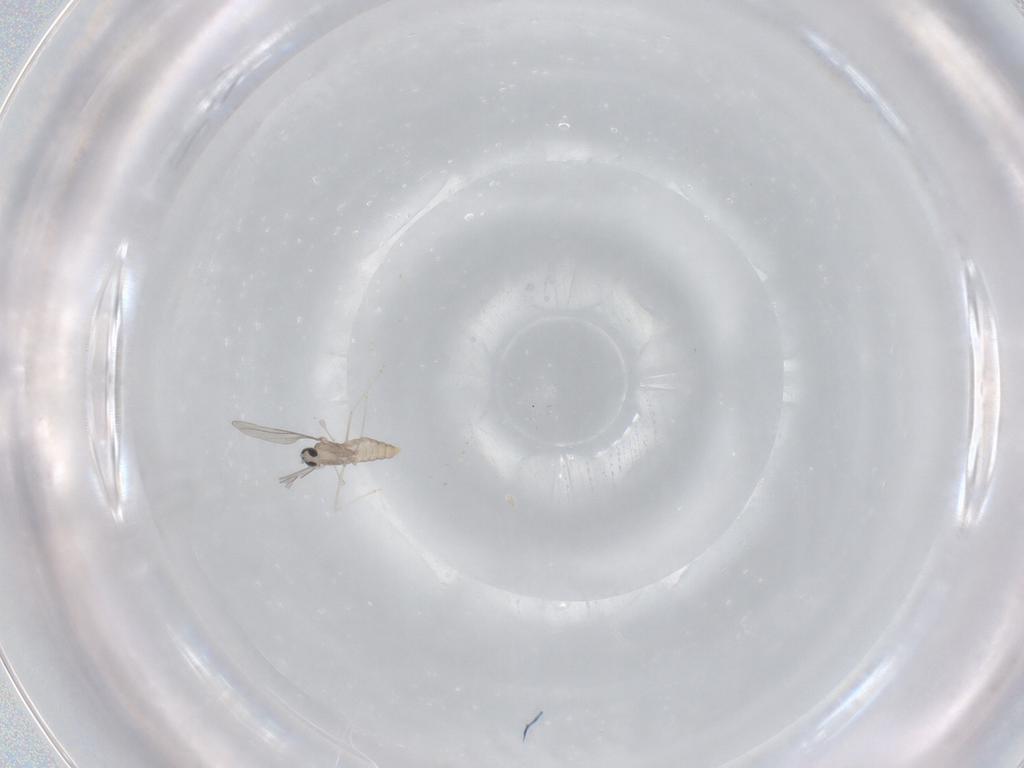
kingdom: Animalia
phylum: Arthropoda
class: Insecta
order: Diptera
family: Cecidomyiidae
